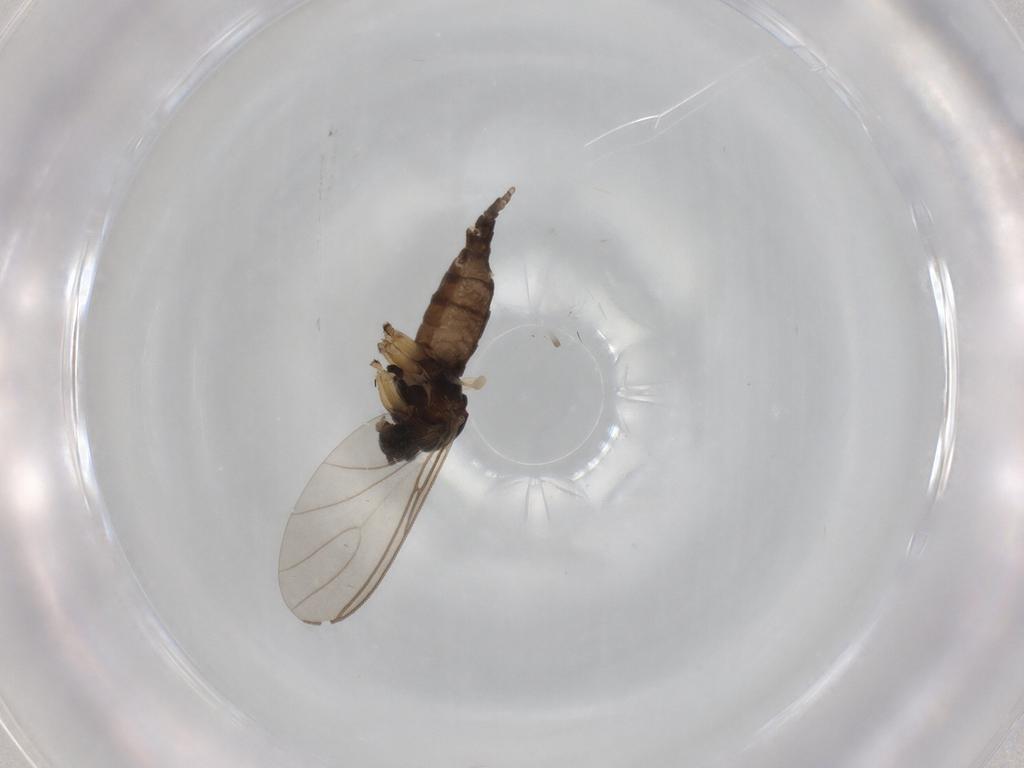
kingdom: Animalia
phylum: Arthropoda
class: Insecta
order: Diptera
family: Sciaridae
